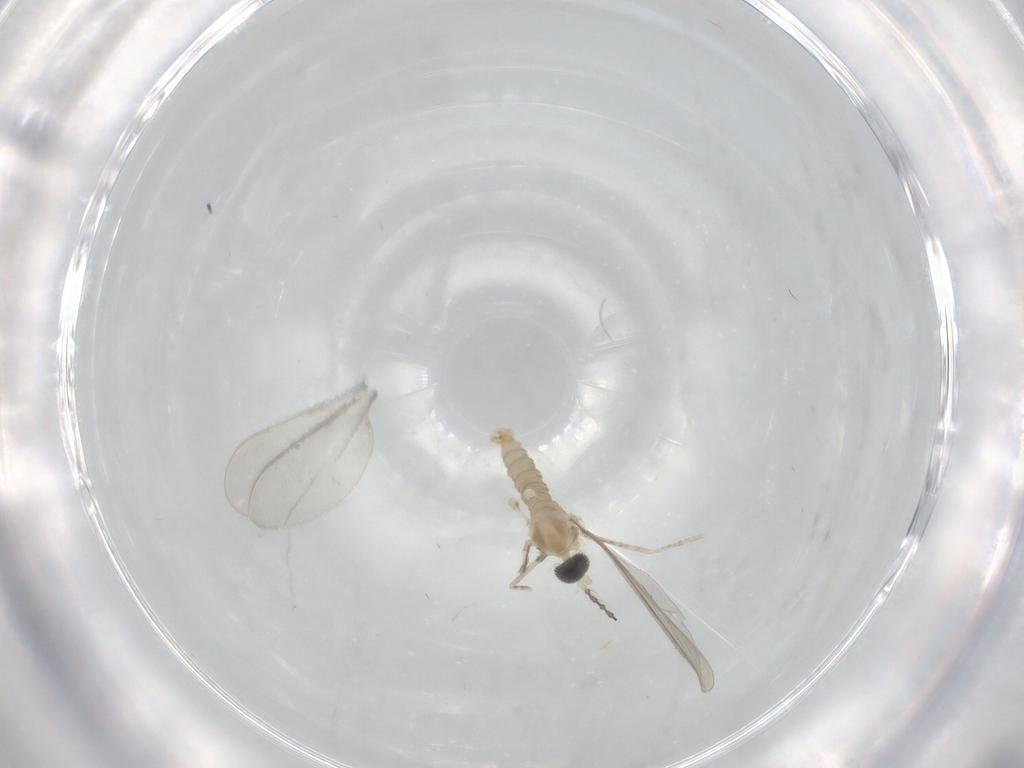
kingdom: Animalia
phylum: Arthropoda
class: Insecta
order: Diptera
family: Cecidomyiidae
